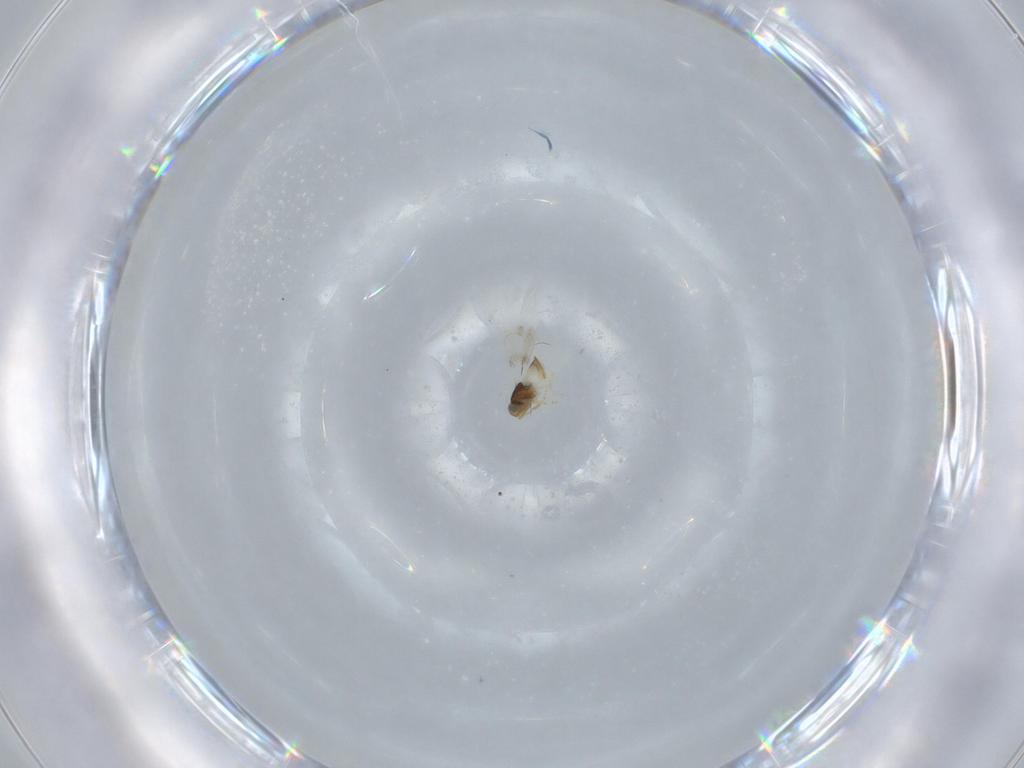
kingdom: Animalia
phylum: Arthropoda
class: Insecta
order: Hymenoptera
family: Aphelinidae
